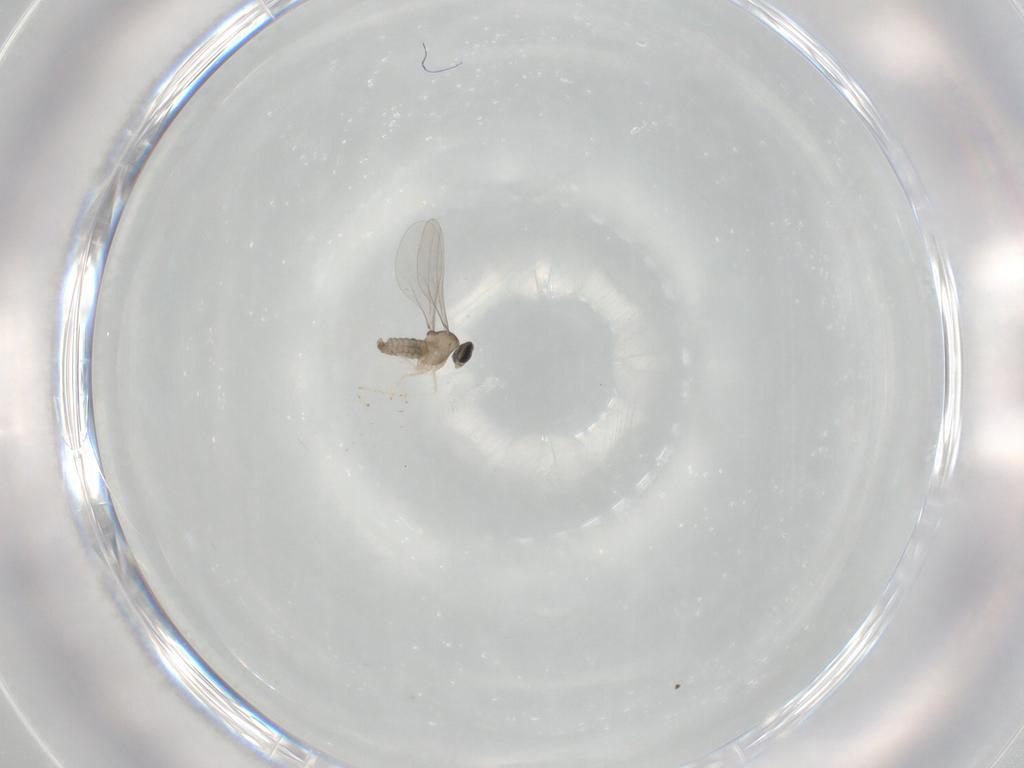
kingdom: Animalia
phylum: Arthropoda
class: Insecta
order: Diptera
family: Cecidomyiidae
